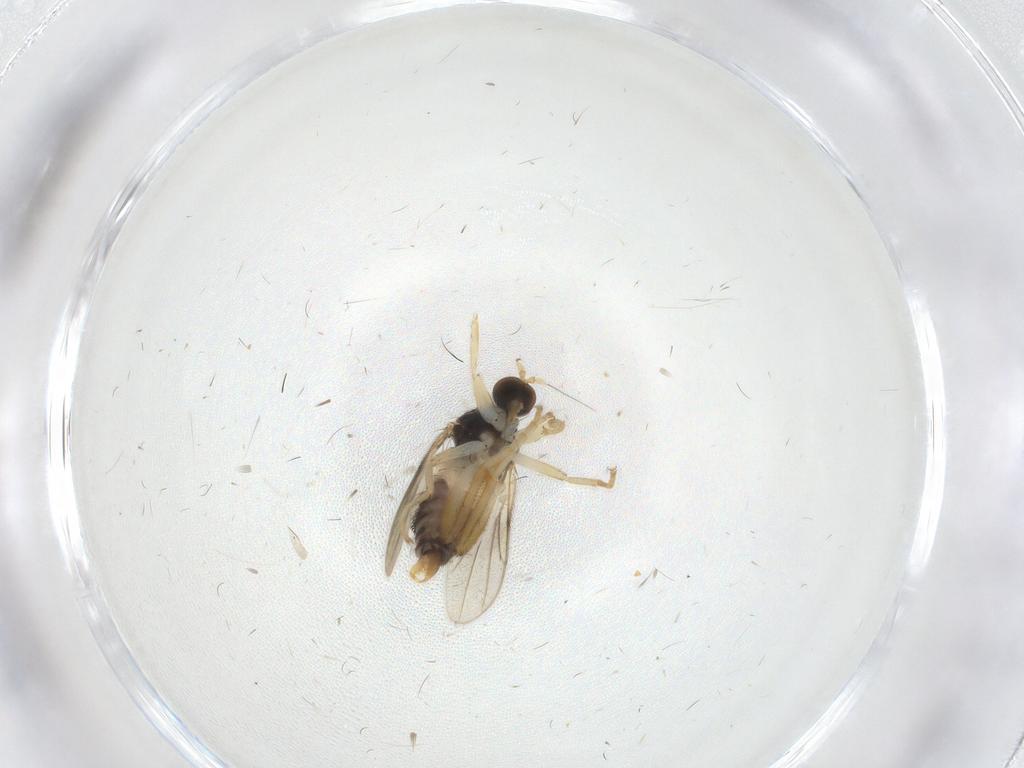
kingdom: Animalia
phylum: Arthropoda
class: Insecta
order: Diptera
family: Hybotidae
